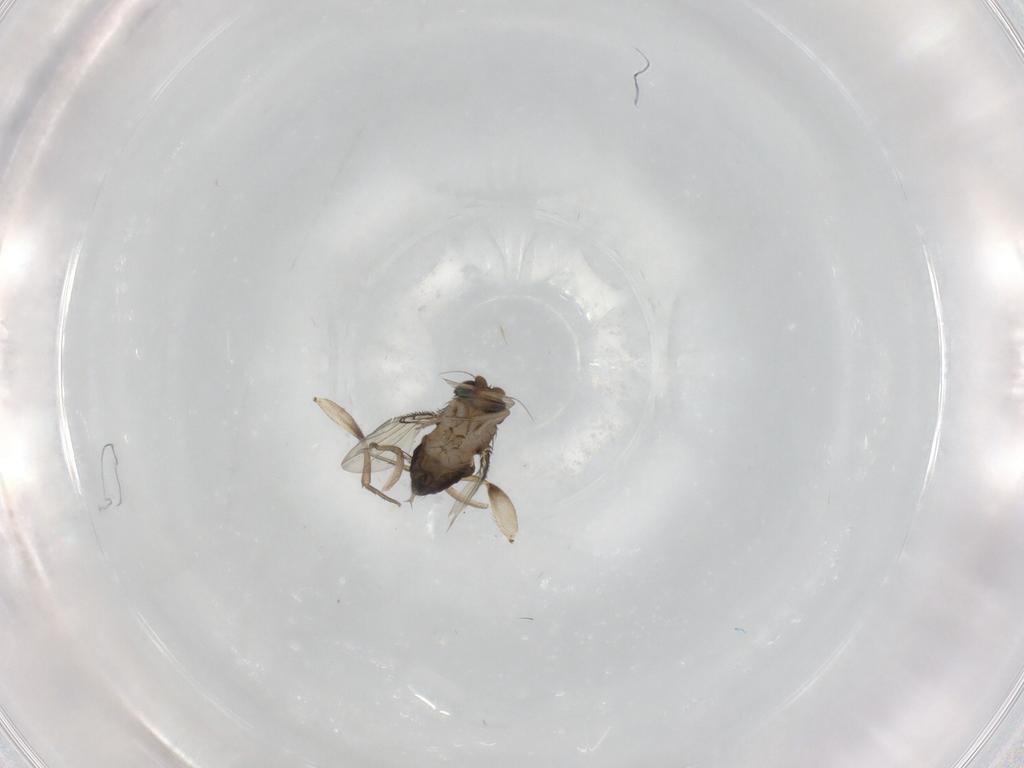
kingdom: Animalia
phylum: Arthropoda
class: Insecta
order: Diptera
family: Phoridae
